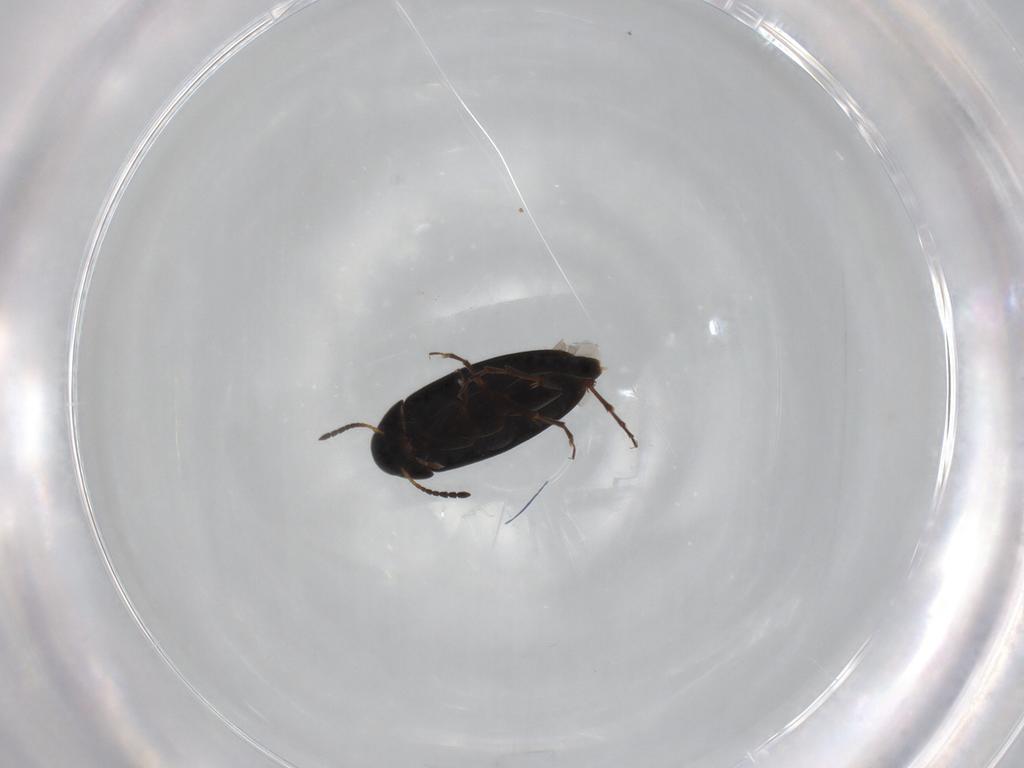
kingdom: Animalia
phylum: Arthropoda
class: Insecta
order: Coleoptera
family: Scraptiidae
